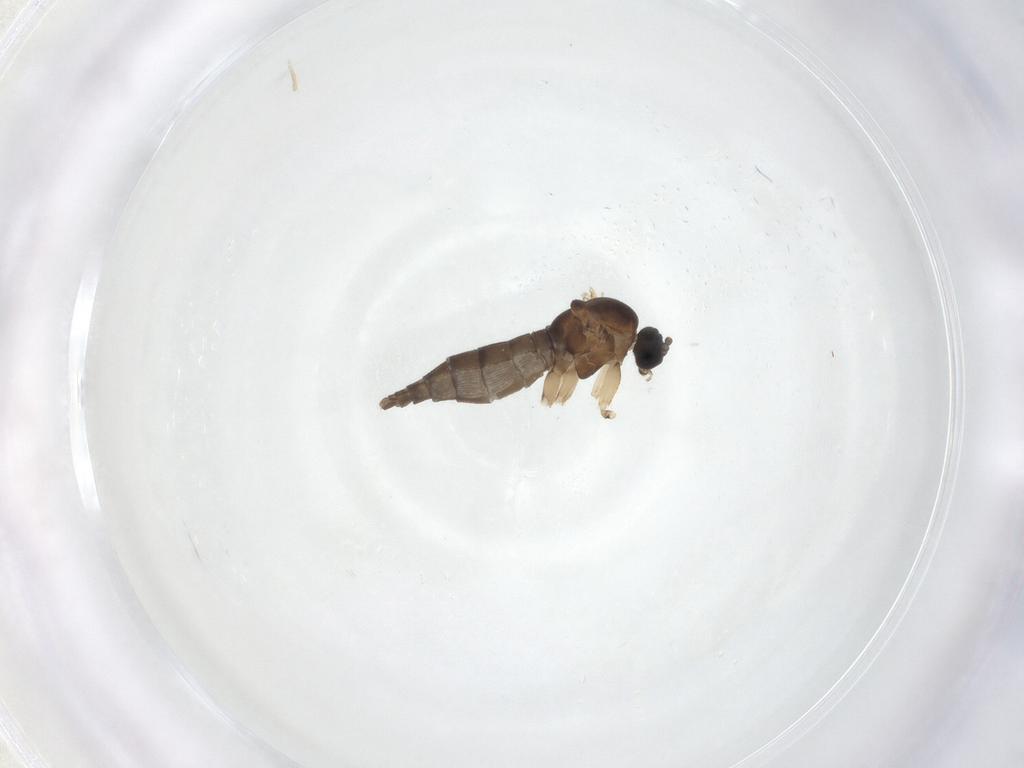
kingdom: Animalia
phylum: Arthropoda
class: Insecta
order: Diptera
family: Sciaridae
